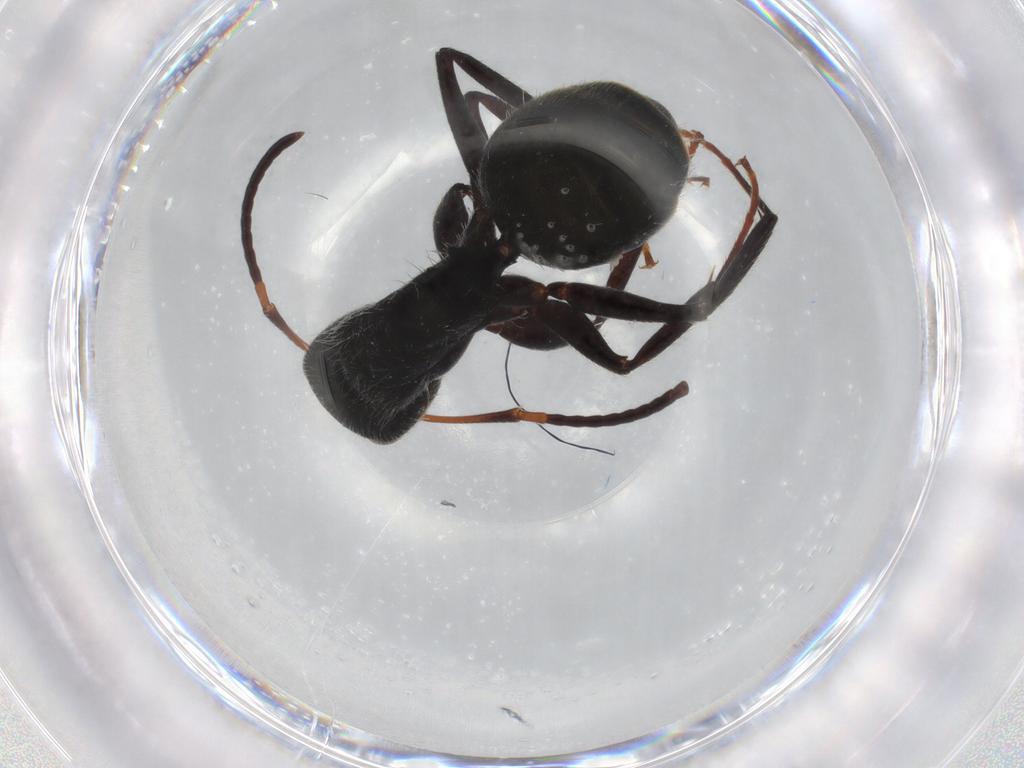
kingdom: Animalia
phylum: Arthropoda
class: Insecta
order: Hymenoptera
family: Formicidae
